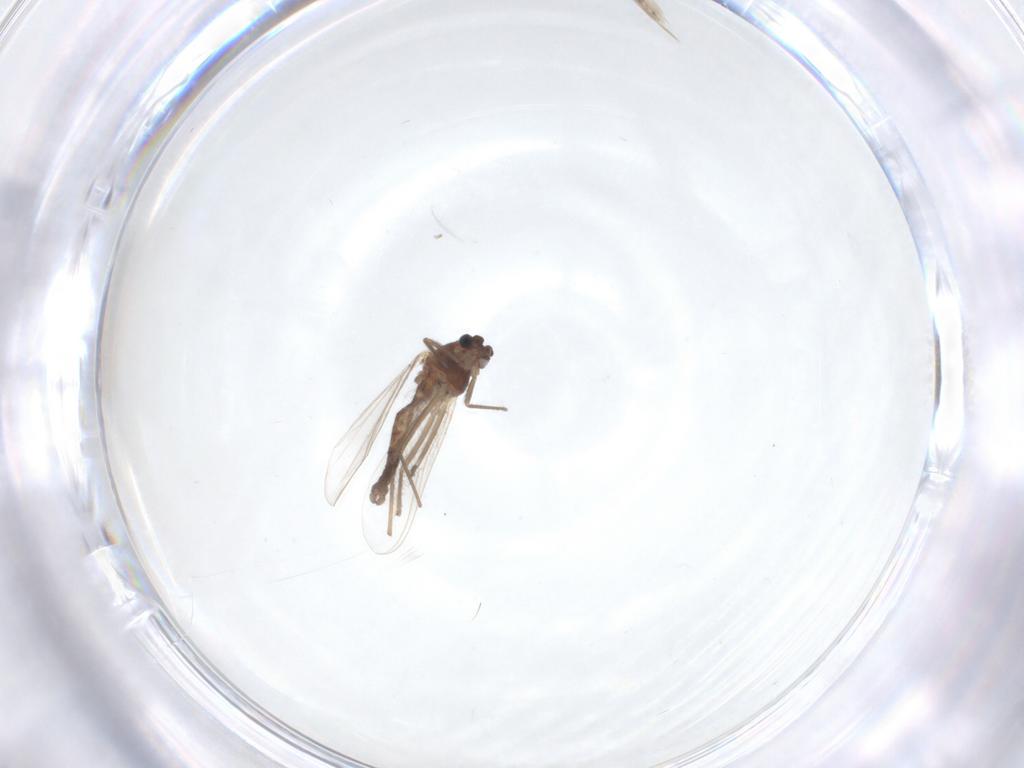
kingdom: Animalia
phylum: Arthropoda
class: Insecta
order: Diptera
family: Chironomidae
